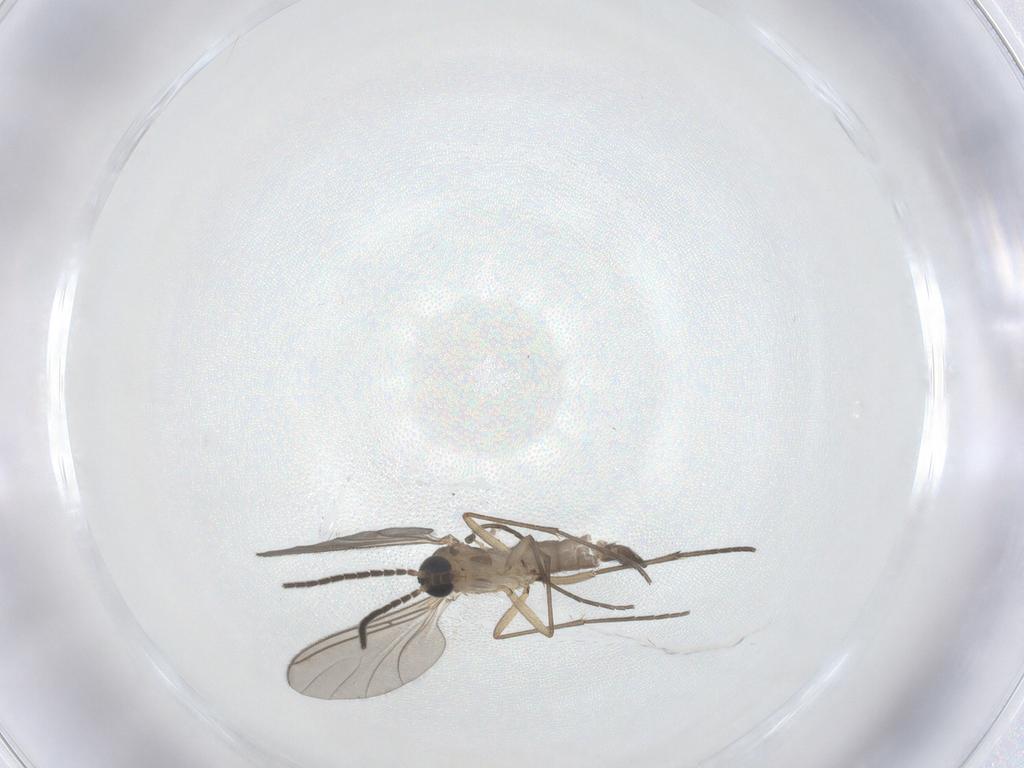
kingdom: Animalia
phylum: Arthropoda
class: Insecta
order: Diptera
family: Sciaridae
